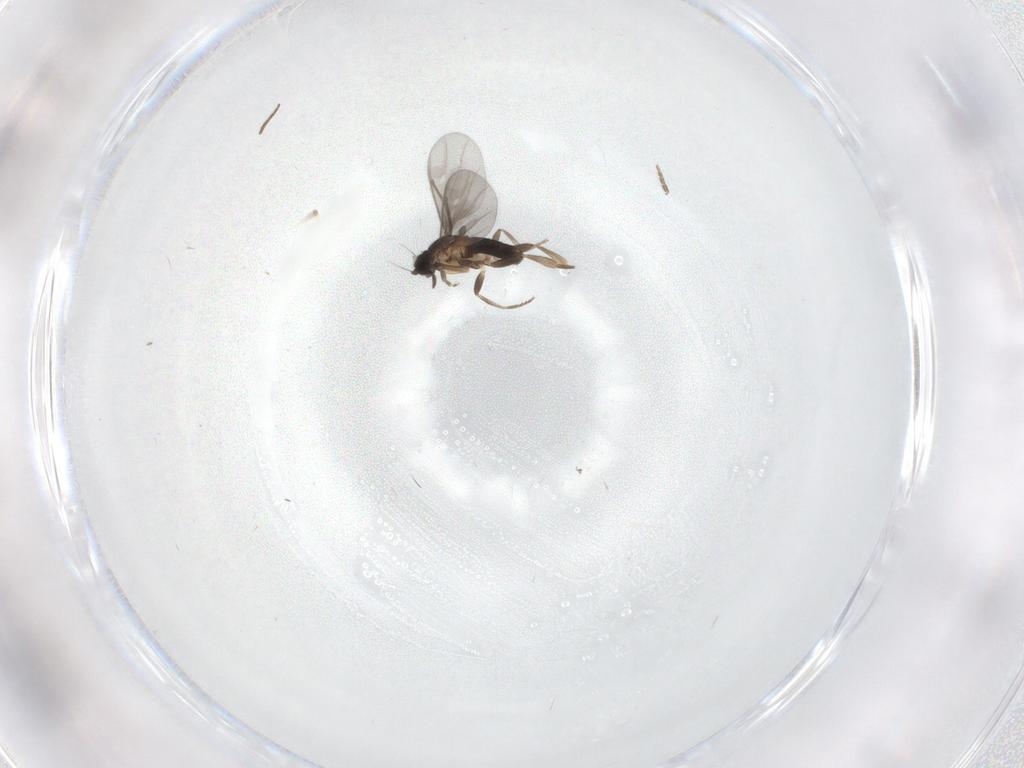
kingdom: Animalia
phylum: Arthropoda
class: Insecta
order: Diptera
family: Sciaridae
